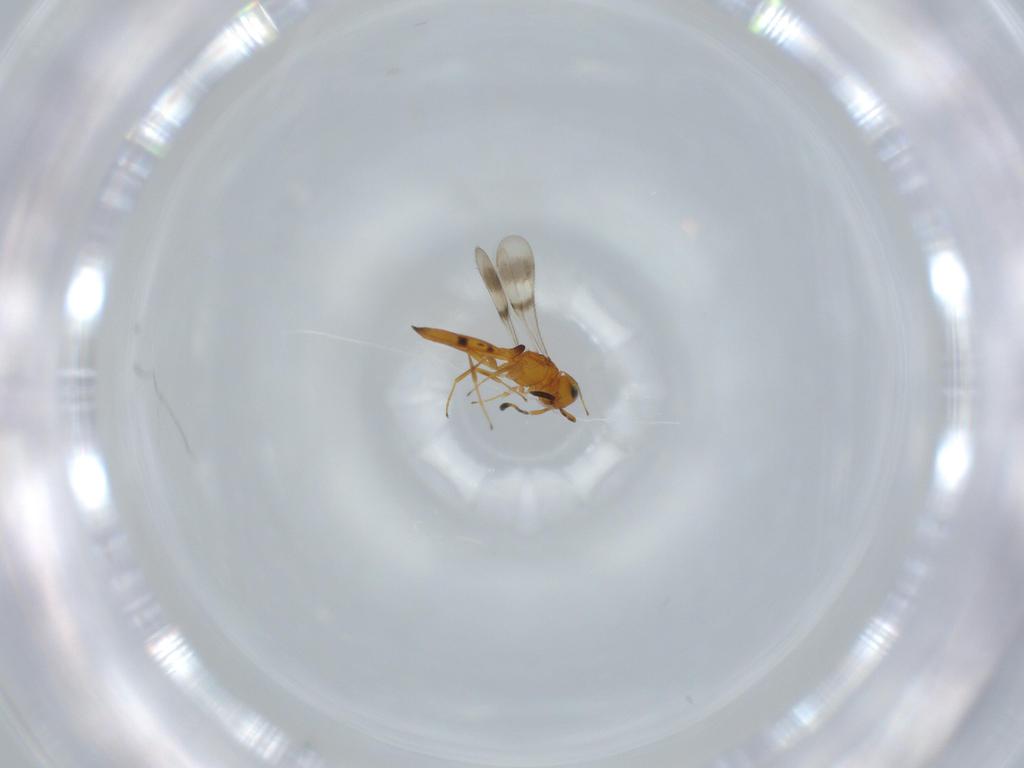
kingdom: Animalia
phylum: Arthropoda
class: Insecta
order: Hymenoptera
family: Scelionidae
